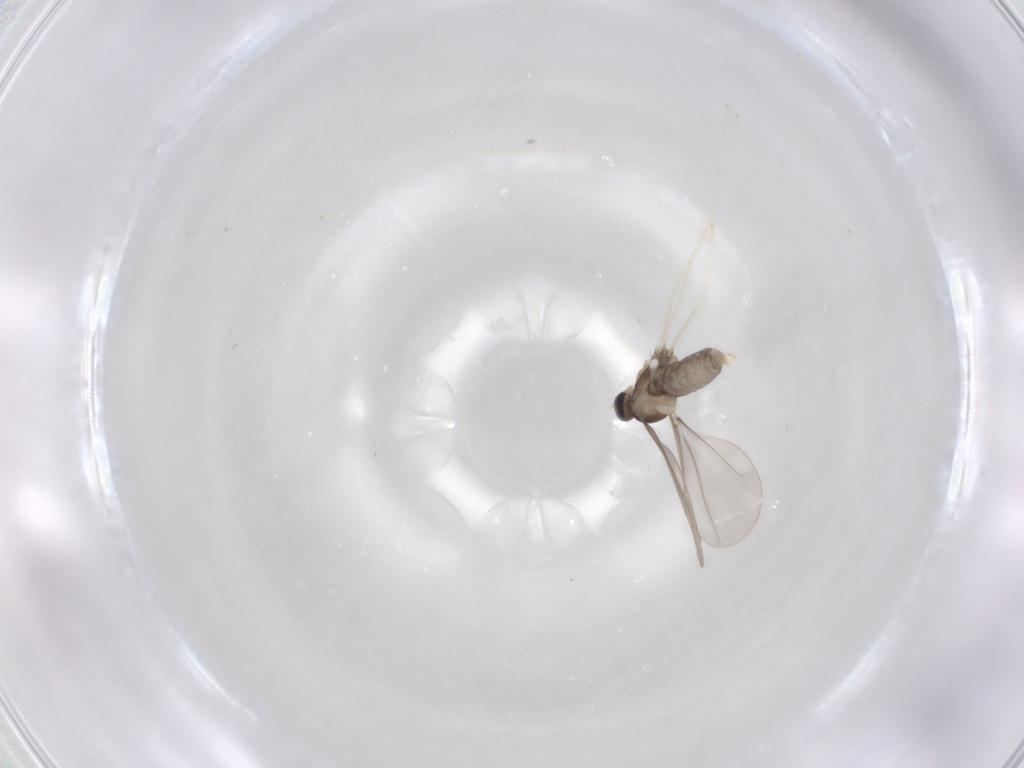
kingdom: Animalia
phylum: Arthropoda
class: Insecta
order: Diptera
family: Cecidomyiidae
